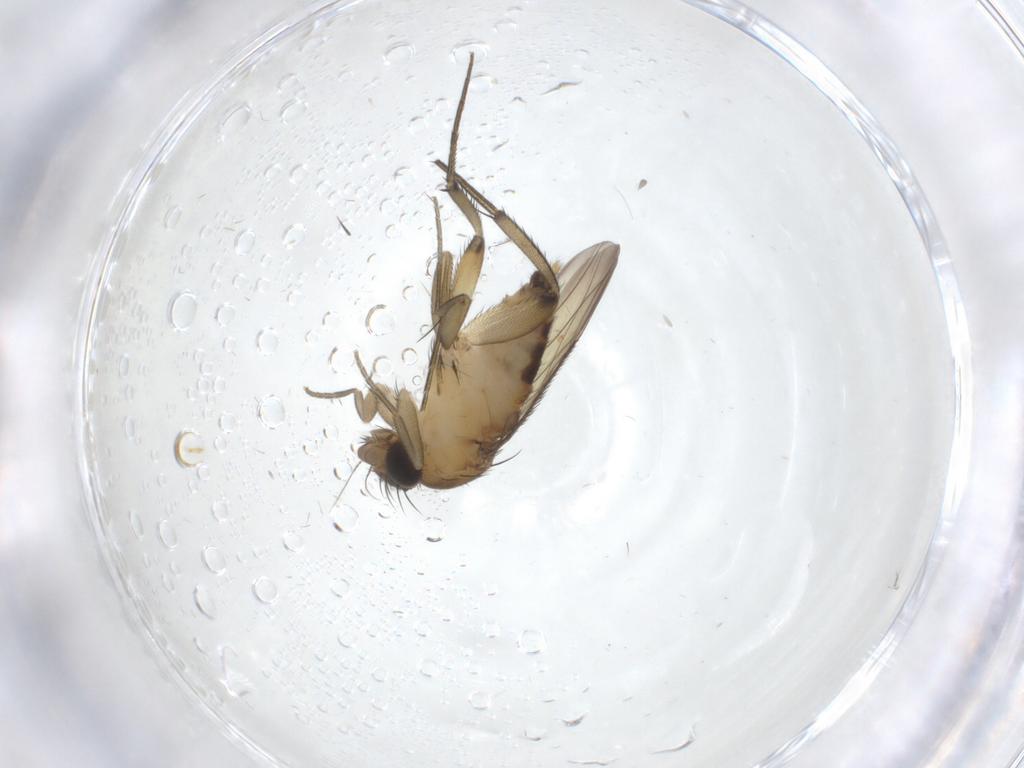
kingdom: Animalia
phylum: Arthropoda
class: Insecta
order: Diptera
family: Phoridae
